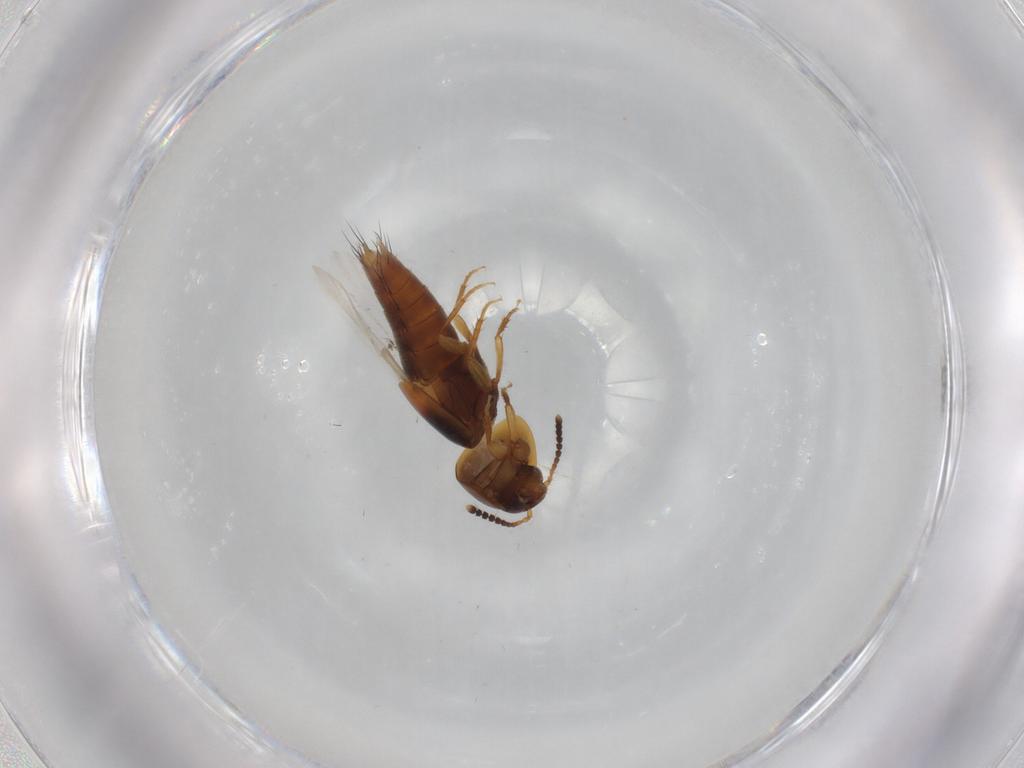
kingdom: Animalia
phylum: Arthropoda
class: Insecta
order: Coleoptera
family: Staphylinidae
